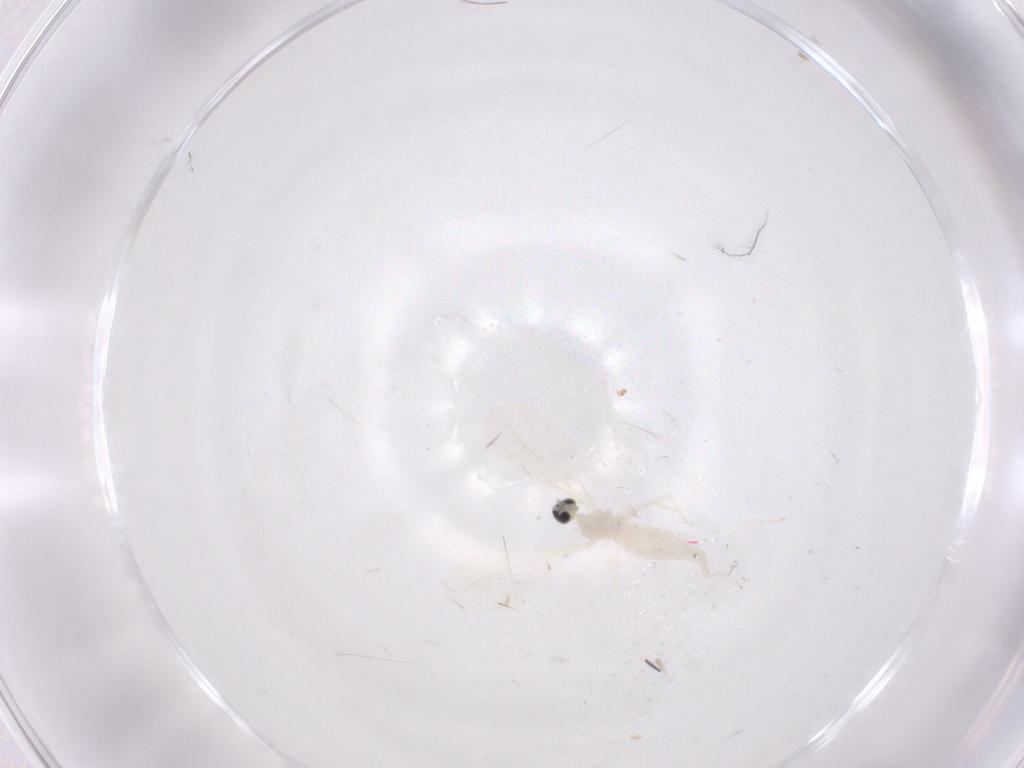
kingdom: Animalia
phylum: Arthropoda
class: Insecta
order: Diptera
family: Cecidomyiidae
